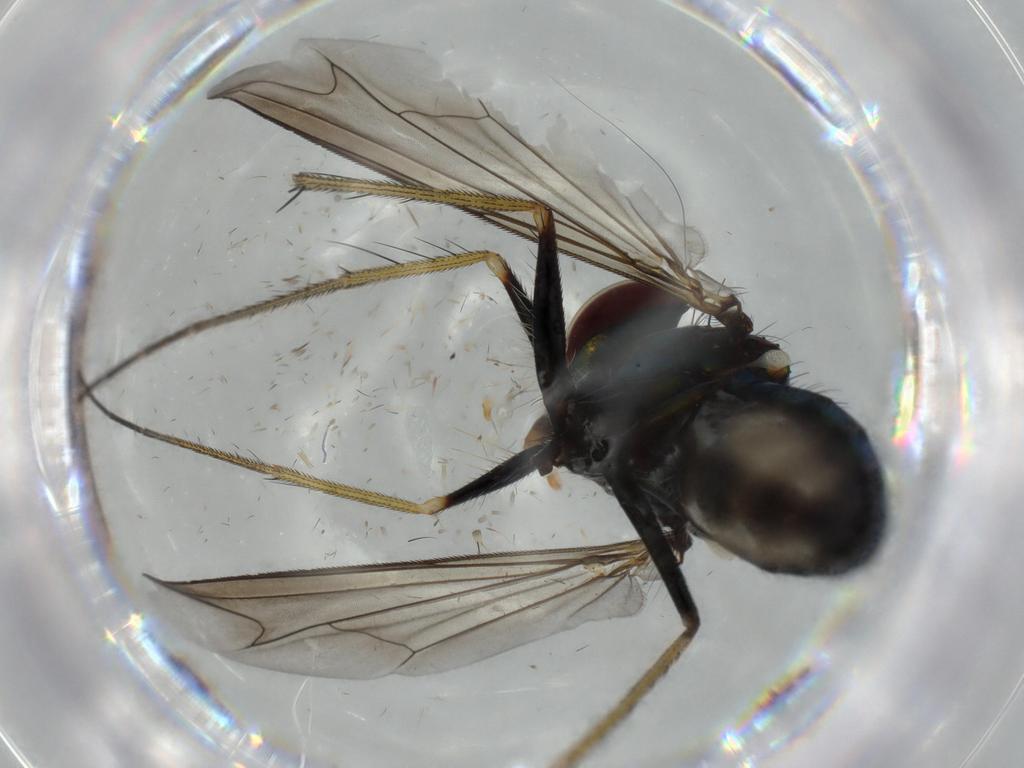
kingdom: Animalia
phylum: Arthropoda
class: Insecta
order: Diptera
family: Dolichopodidae
